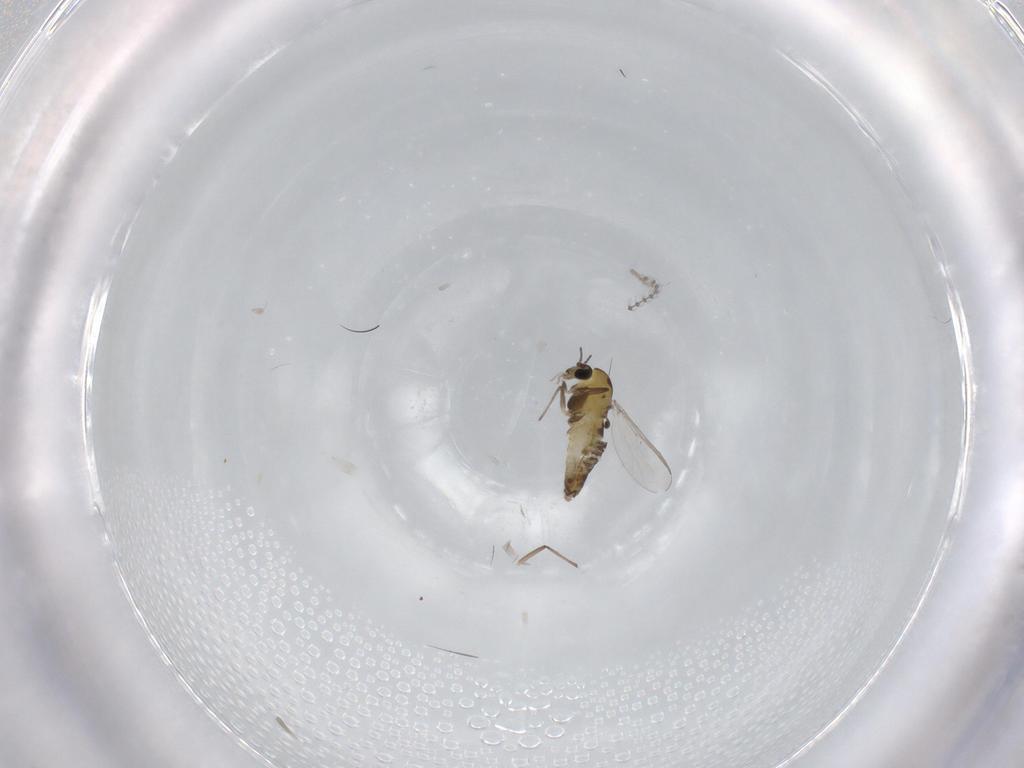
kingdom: Animalia
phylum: Arthropoda
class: Insecta
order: Diptera
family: Chironomidae
